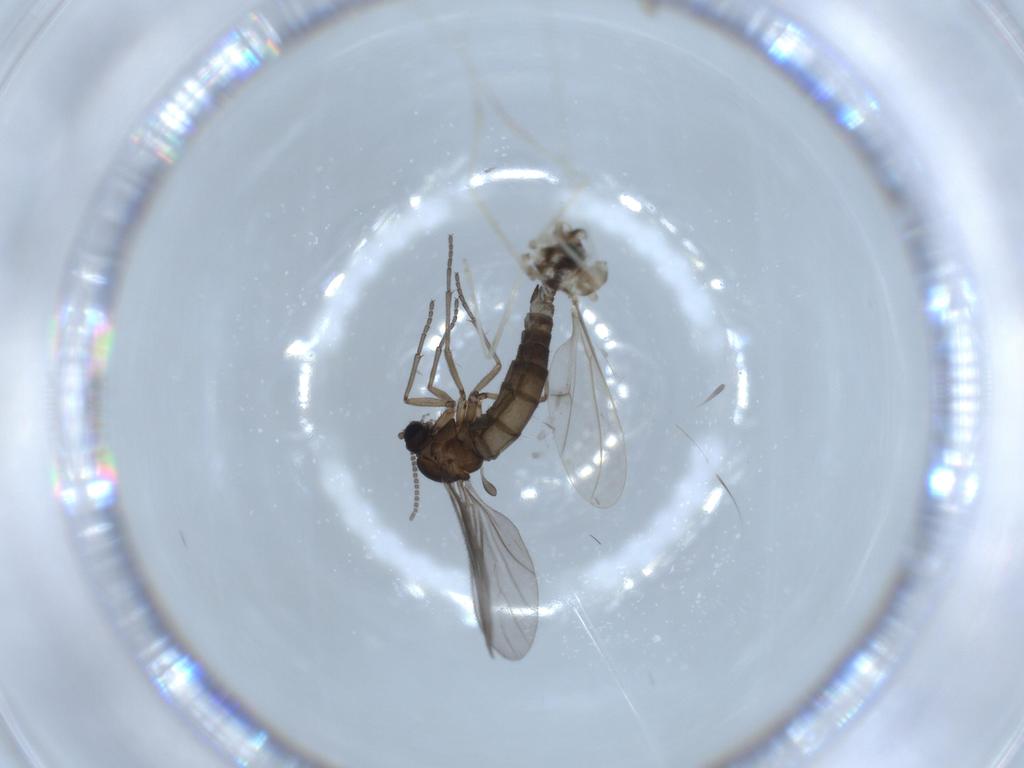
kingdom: Animalia
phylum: Arthropoda
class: Insecta
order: Diptera
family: Cecidomyiidae
